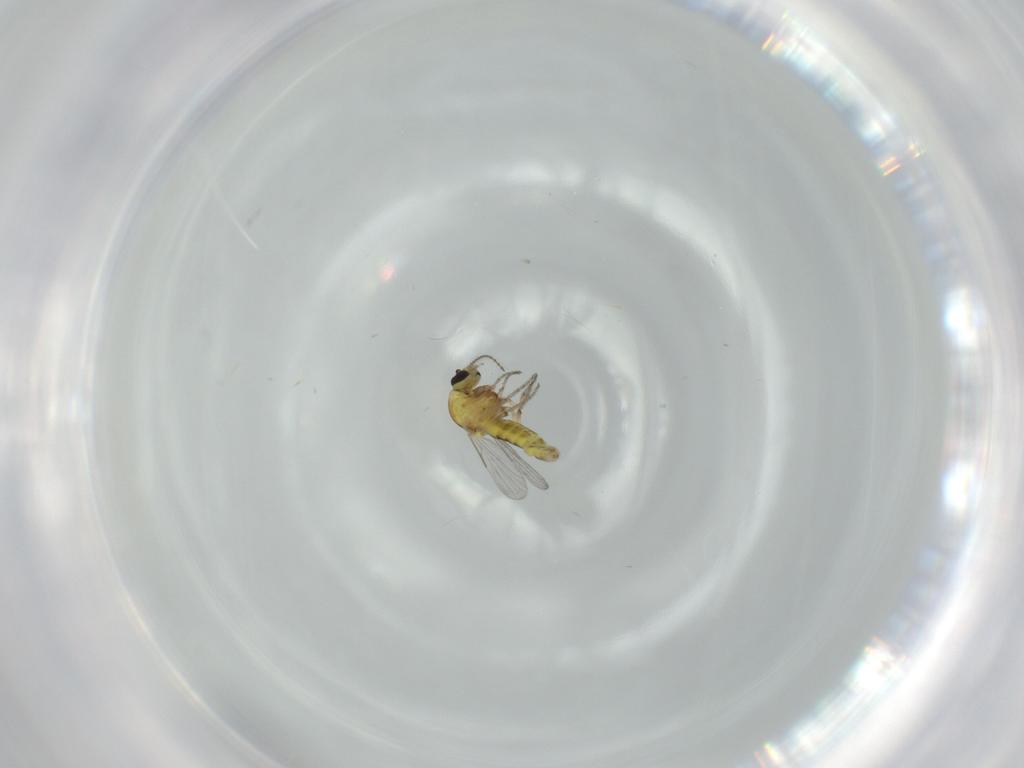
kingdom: Animalia
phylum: Arthropoda
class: Insecta
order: Diptera
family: Ceratopogonidae
